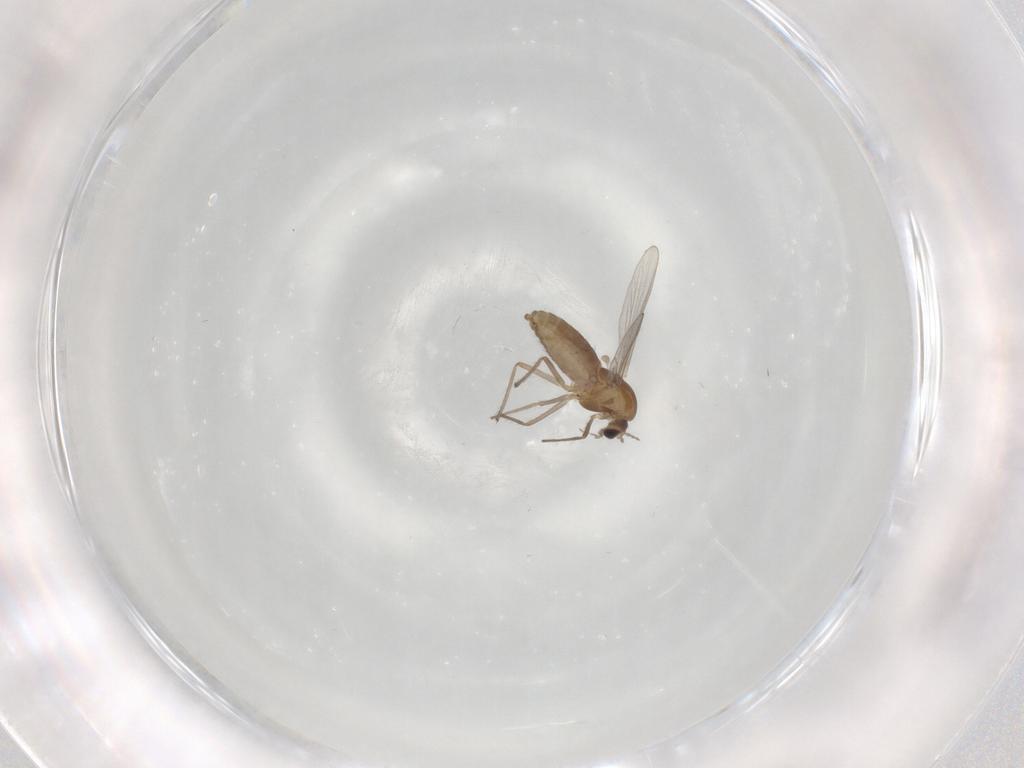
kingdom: Animalia
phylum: Arthropoda
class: Insecta
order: Diptera
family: Chironomidae
